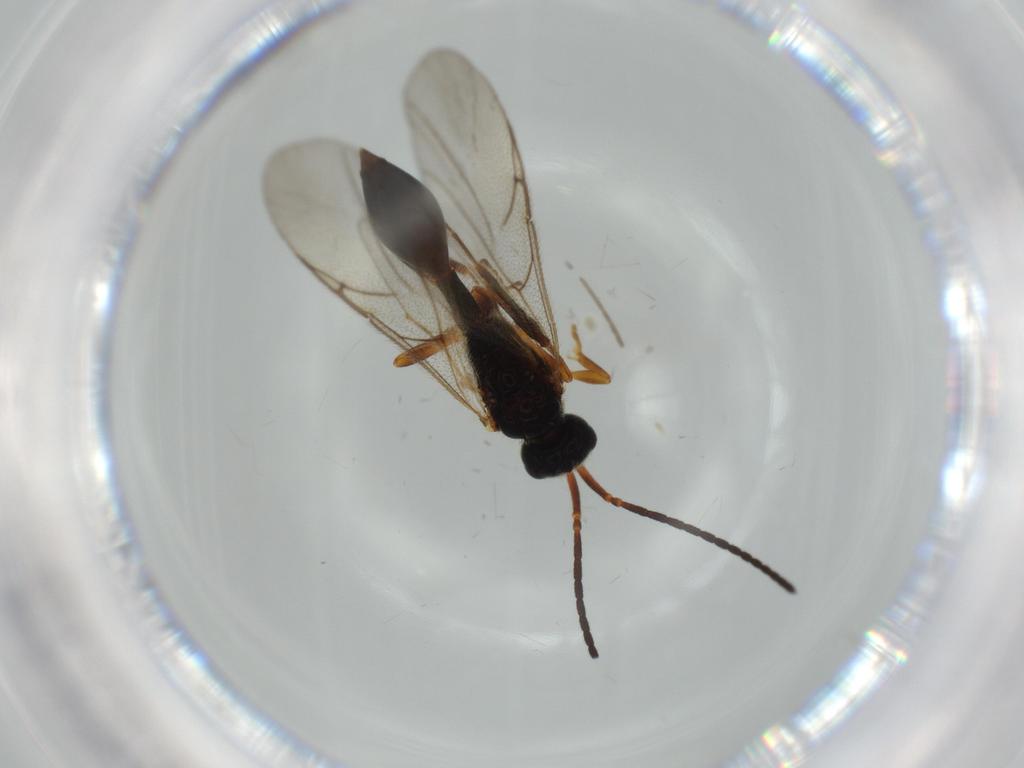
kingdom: Animalia
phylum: Arthropoda
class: Insecta
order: Hymenoptera
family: Diapriidae
